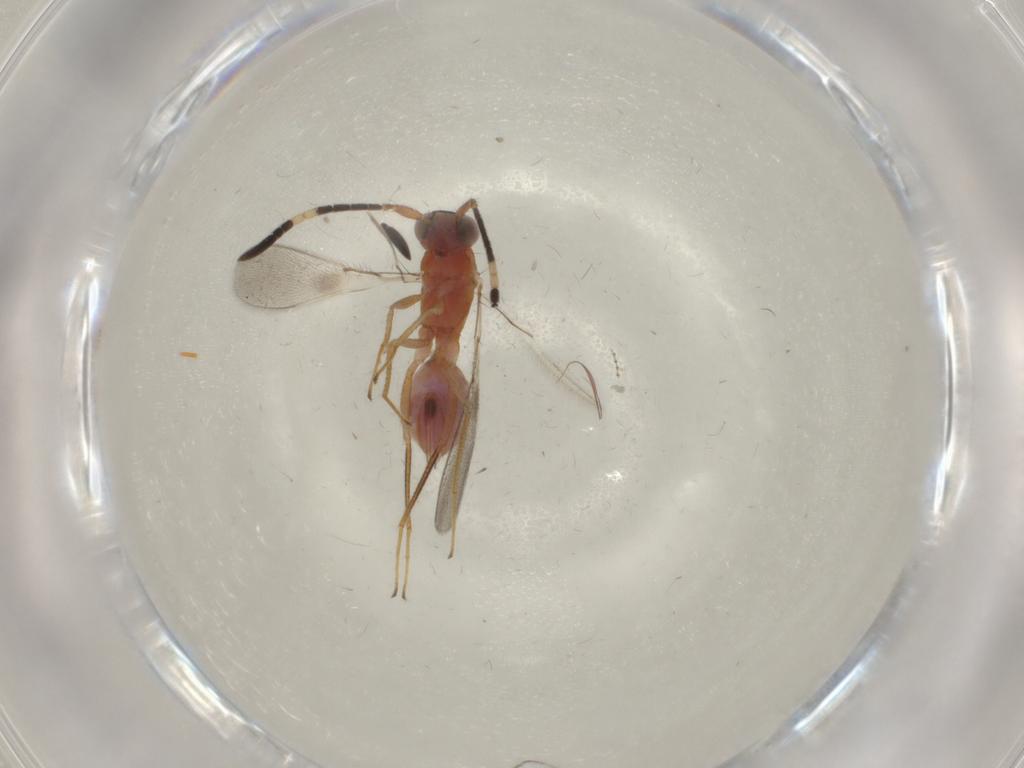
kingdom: Animalia
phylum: Arthropoda
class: Insecta
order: Hymenoptera
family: Mymaridae
